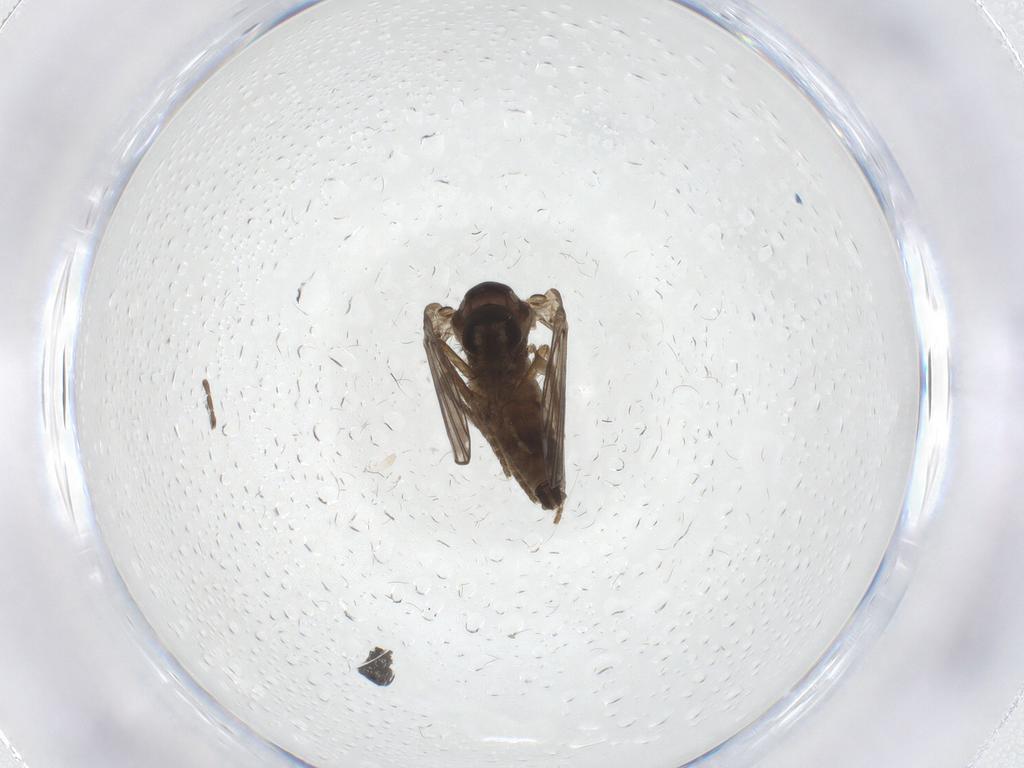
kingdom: Animalia
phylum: Arthropoda
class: Insecta
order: Diptera
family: Psychodidae
